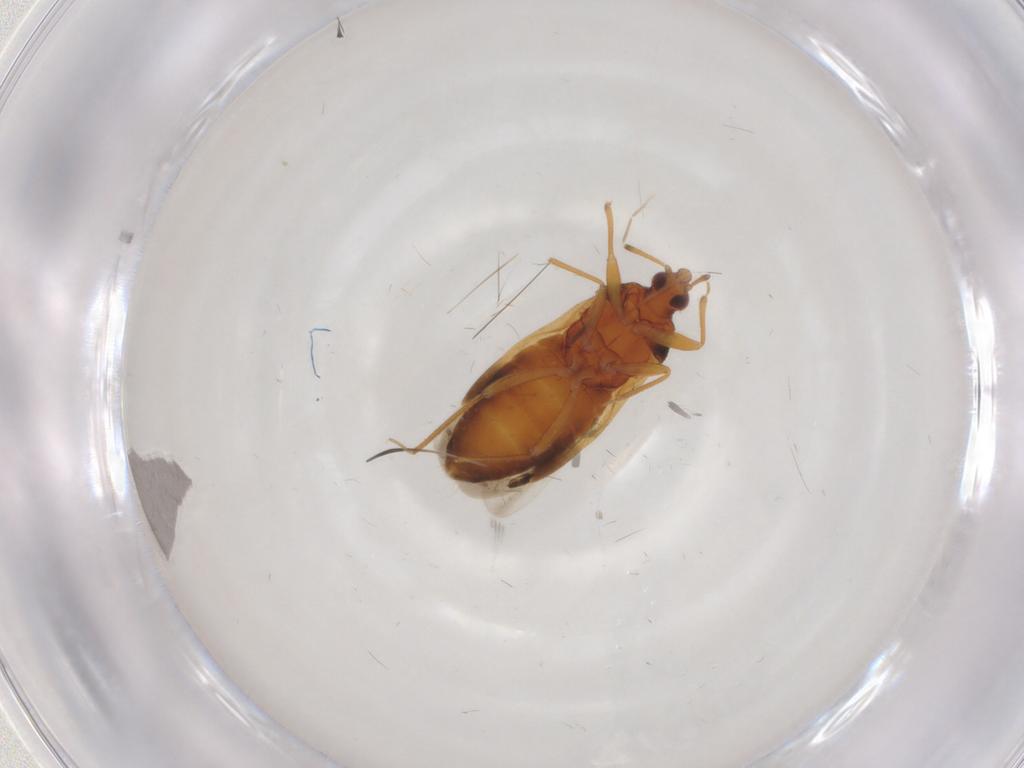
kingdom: Animalia
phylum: Arthropoda
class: Insecta
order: Hemiptera
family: Anthocoridae
